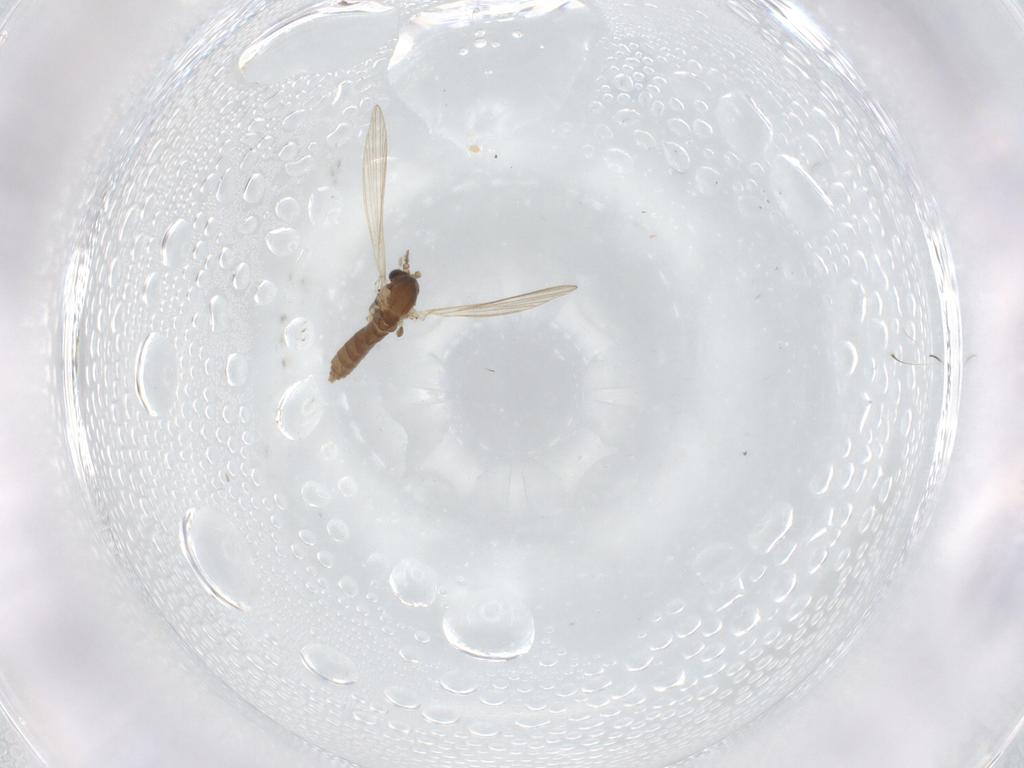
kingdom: Animalia
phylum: Arthropoda
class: Insecta
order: Diptera
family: Psychodidae
